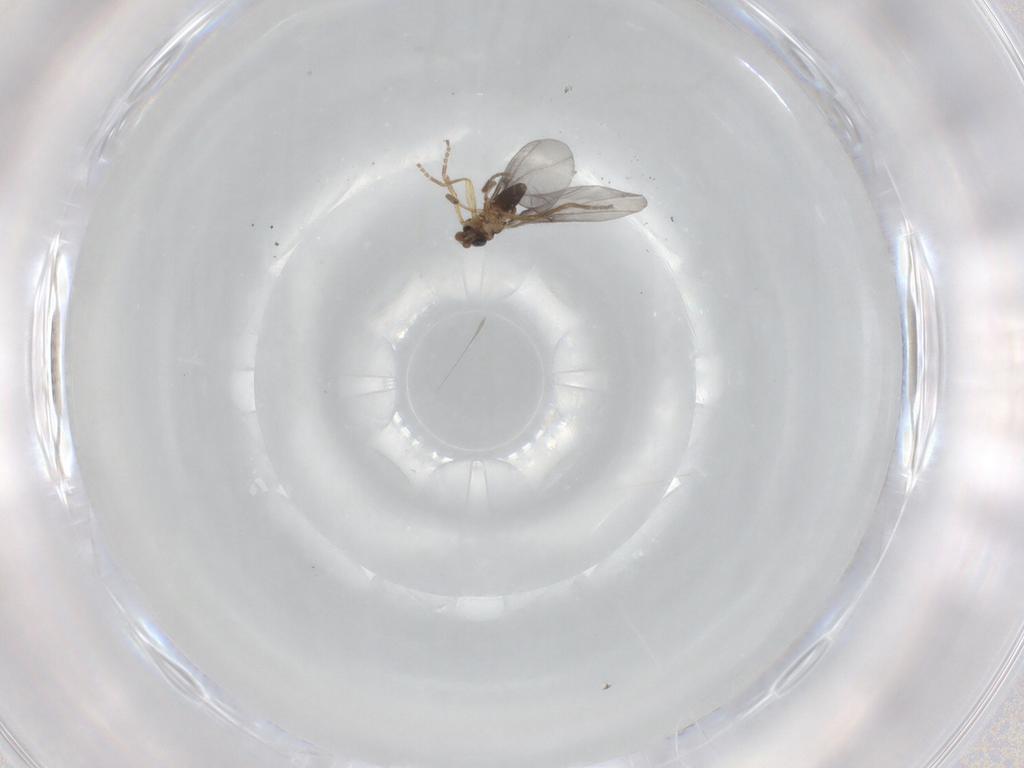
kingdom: Animalia
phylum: Arthropoda
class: Insecta
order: Diptera
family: Phoridae
